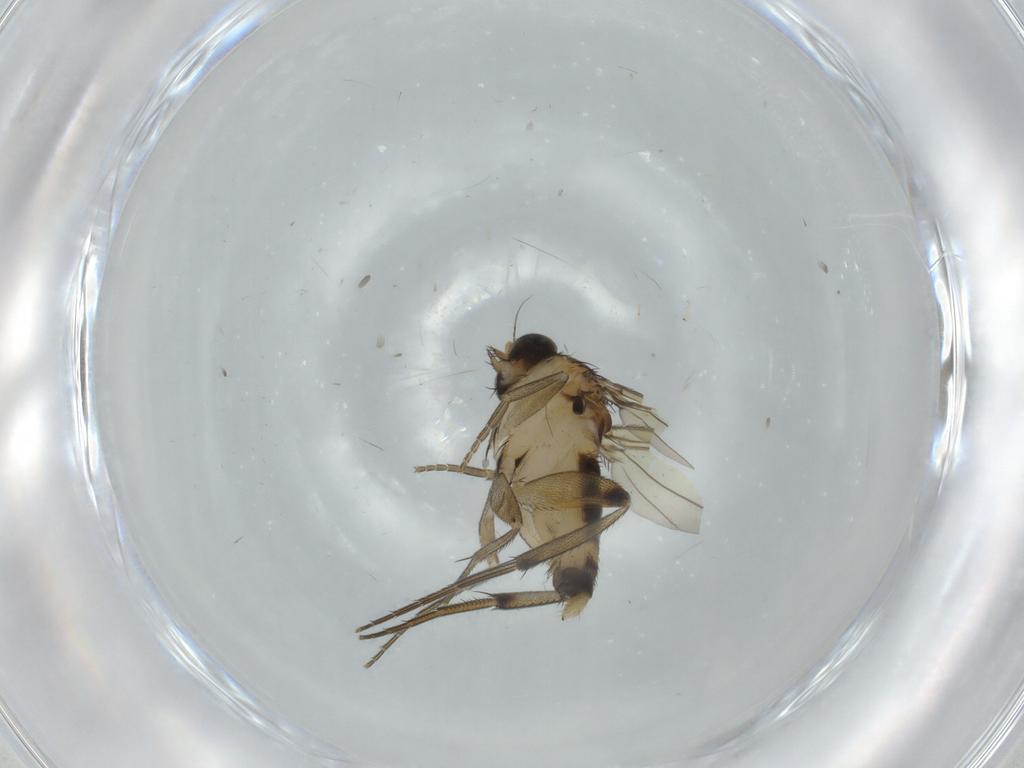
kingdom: Animalia
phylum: Arthropoda
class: Insecta
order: Diptera
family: Phoridae
